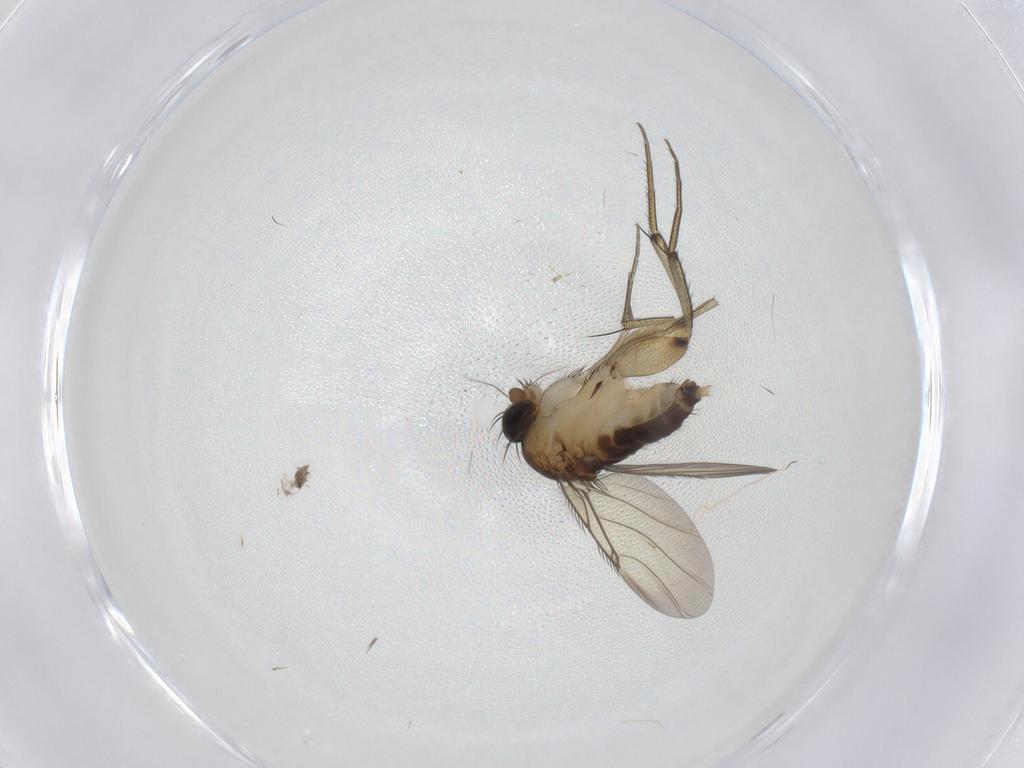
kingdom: Animalia
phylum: Arthropoda
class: Insecta
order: Diptera
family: Phoridae
